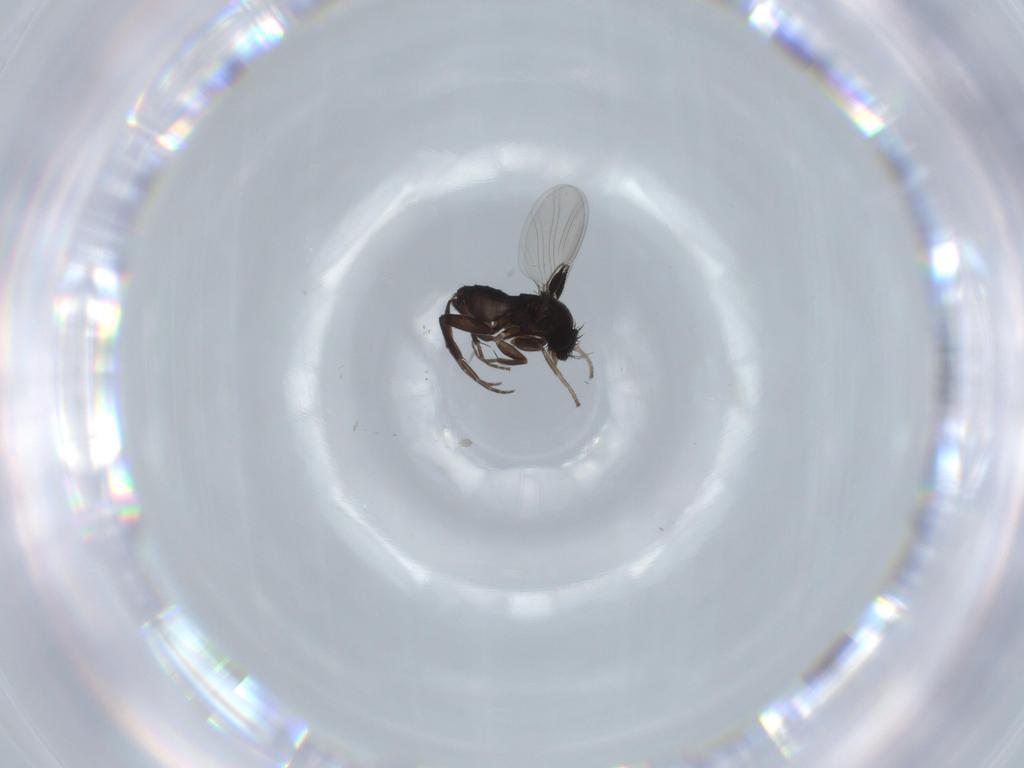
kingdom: Animalia
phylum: Arthropoda
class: Insecta
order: Diptera
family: Phoridae
